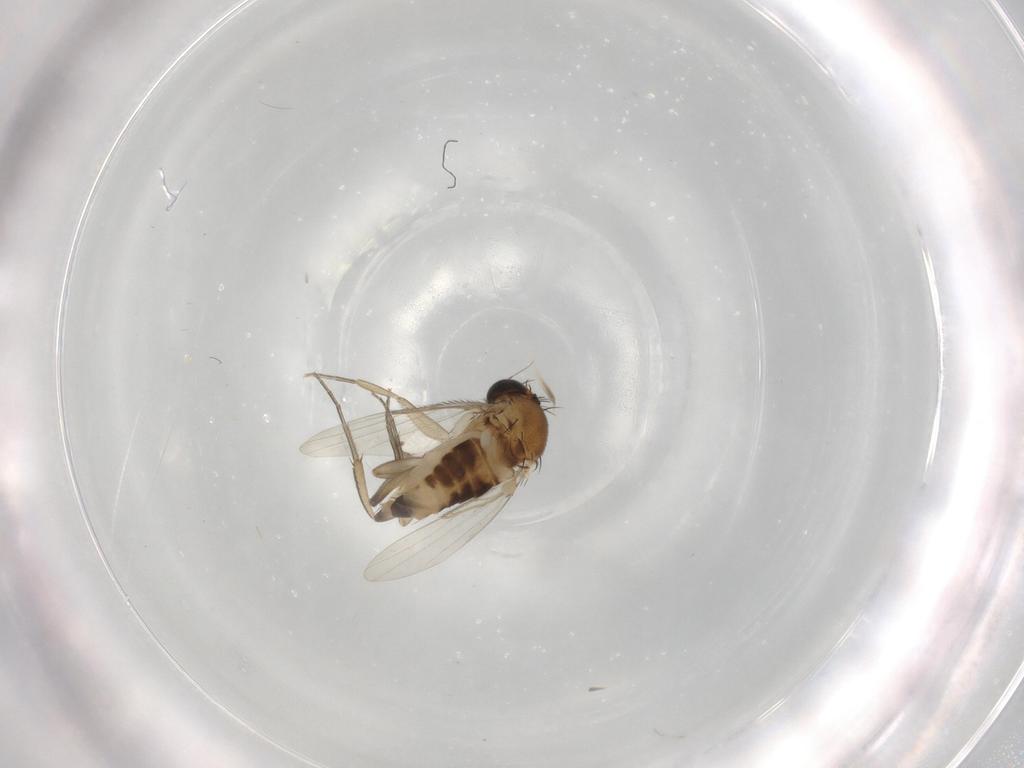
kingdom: Animalia
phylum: Arthropoda
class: Insecta
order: Diptera
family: Phoridae
